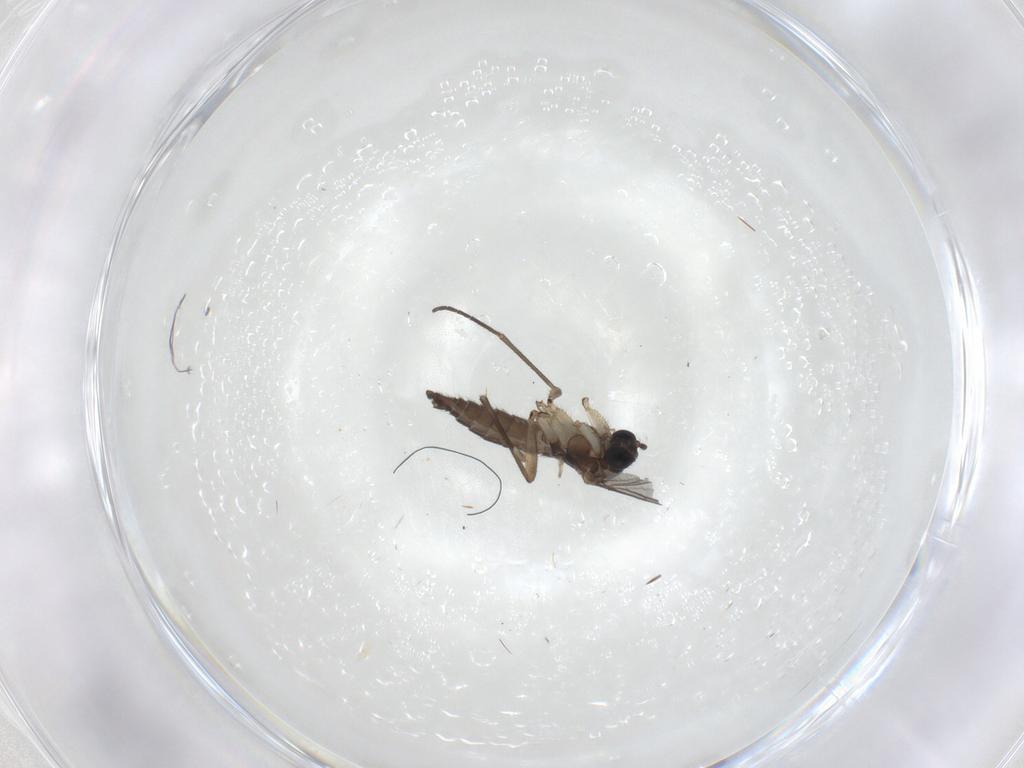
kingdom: Animalia
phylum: Arthropoda
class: Insecta
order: Diptera
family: Sciaridae
